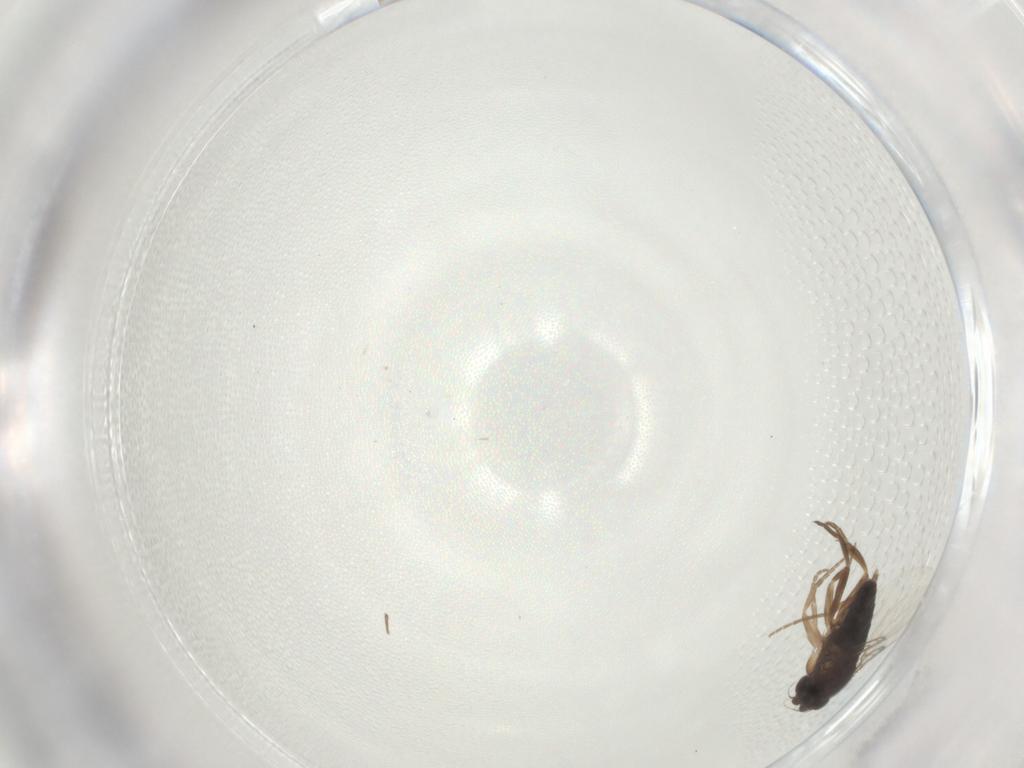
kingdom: Animalia
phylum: Arthropoda
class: Insecta
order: Diptera
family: Phoridae
